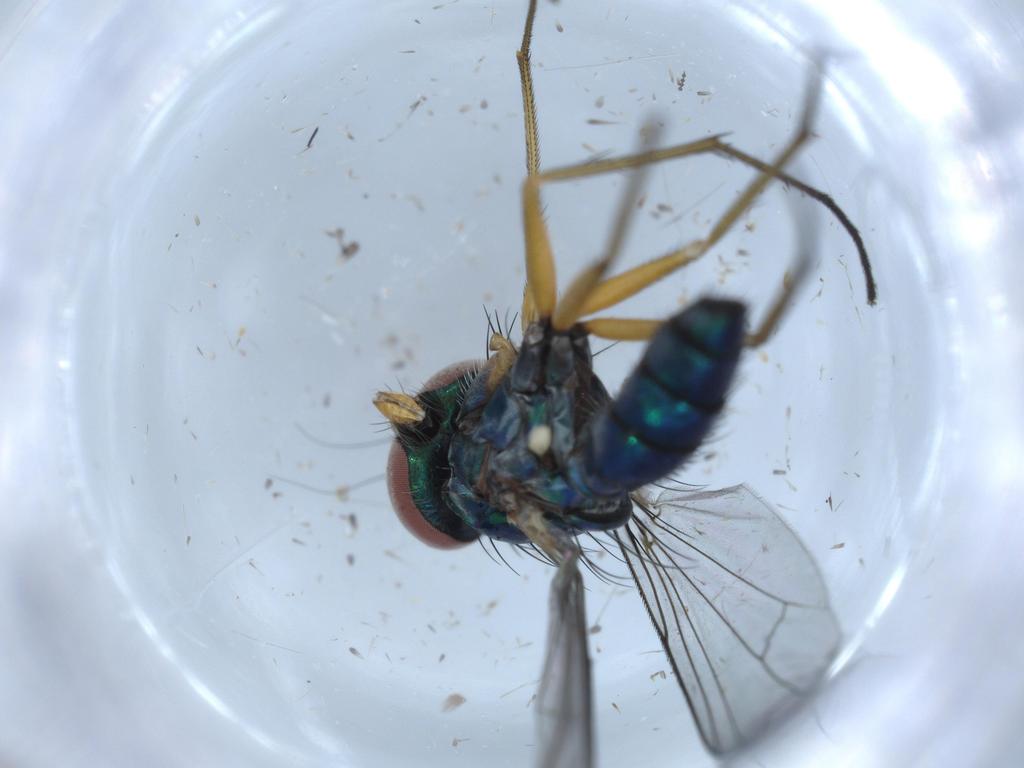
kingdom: Animalia
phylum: Arthropoda
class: Insecta
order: Diptera
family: Dolichopodidae
